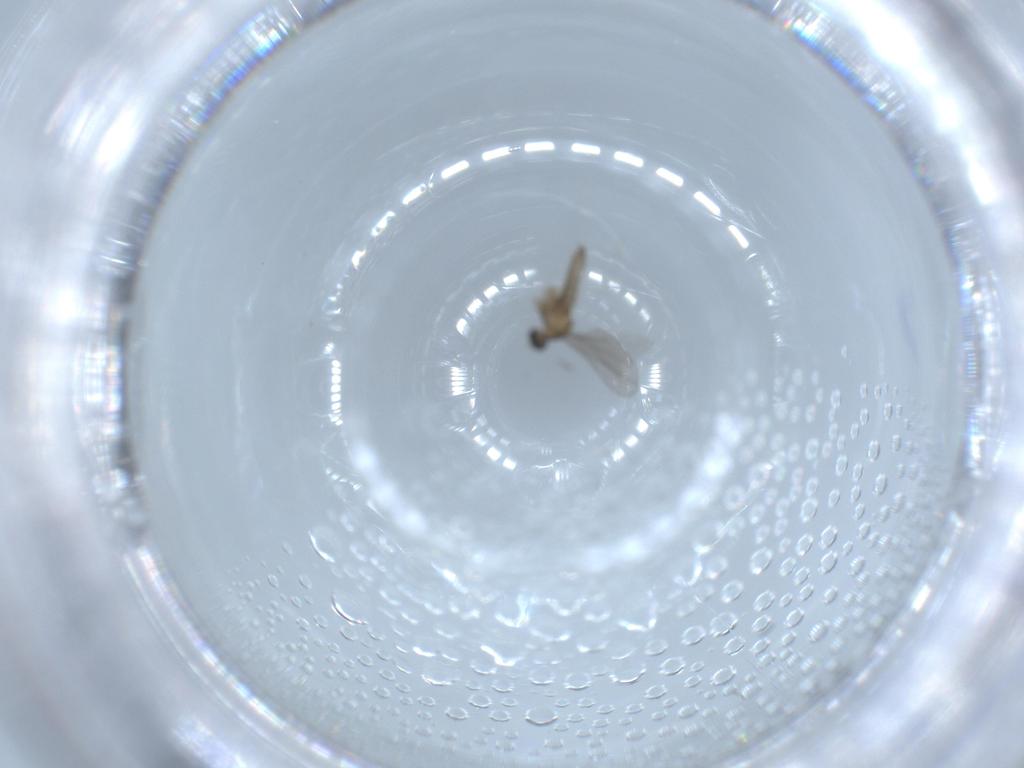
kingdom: Animalia
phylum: Arthropoda
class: Insecta
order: Diptera
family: Cecidomyiidae
